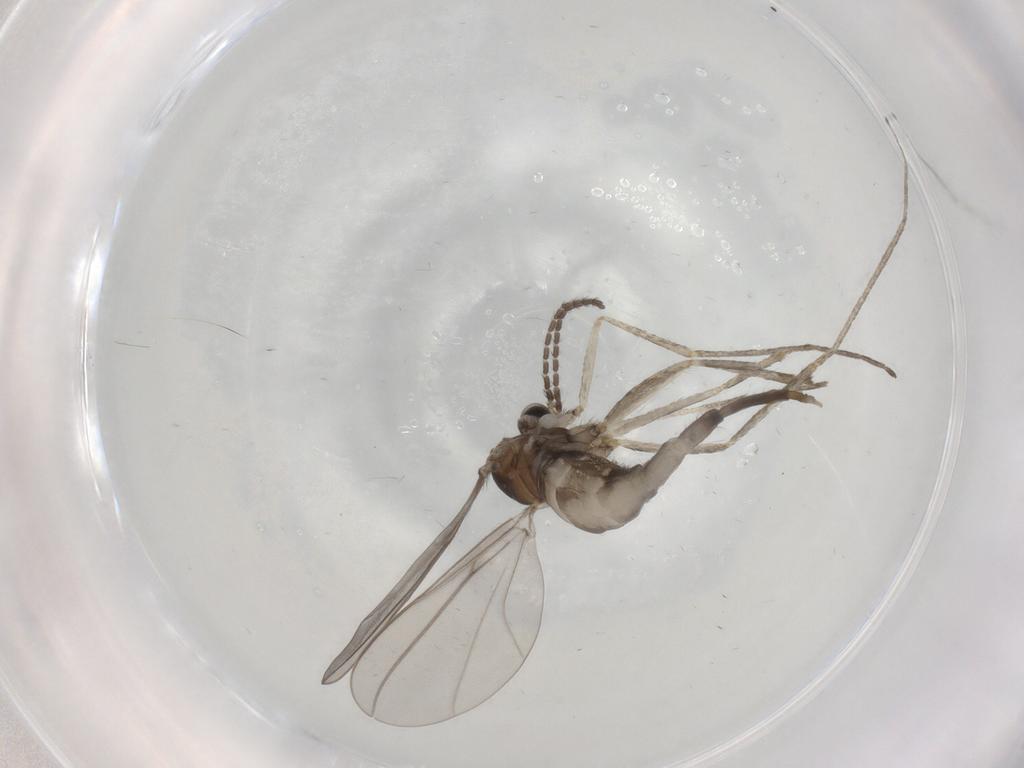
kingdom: Animalia
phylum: Arthropoda
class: Insecta
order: Diptera
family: Cecidomyiidae
